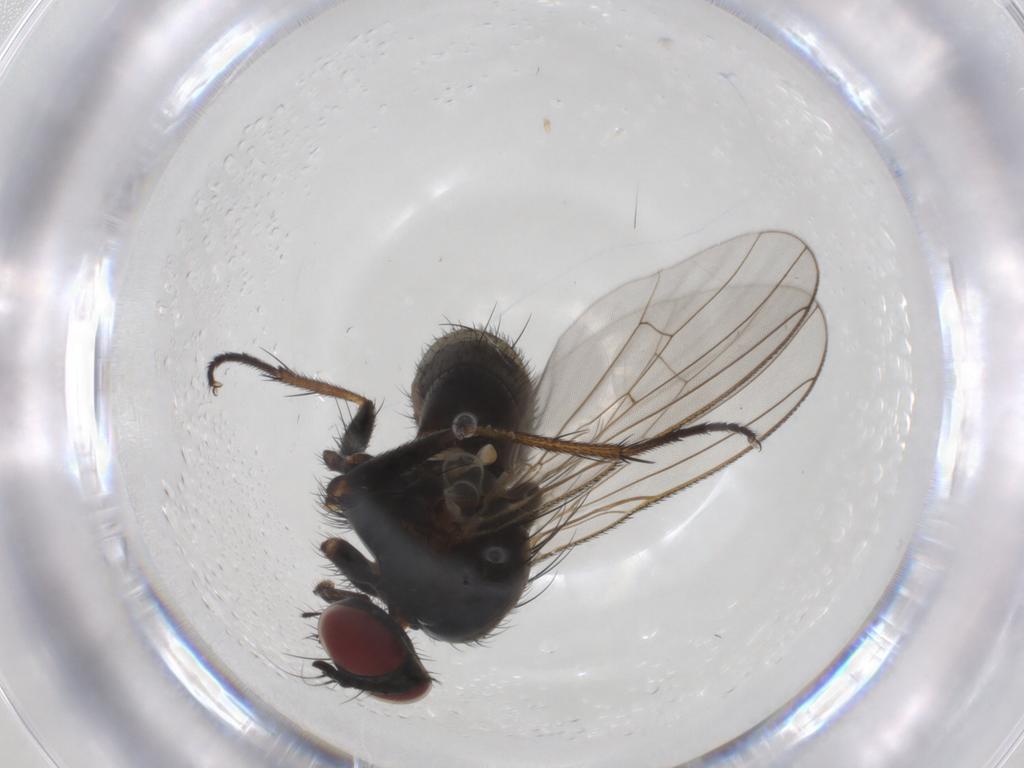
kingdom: Animalia
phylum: Arthropoda
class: Insecta
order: Diptera
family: Muscidae
